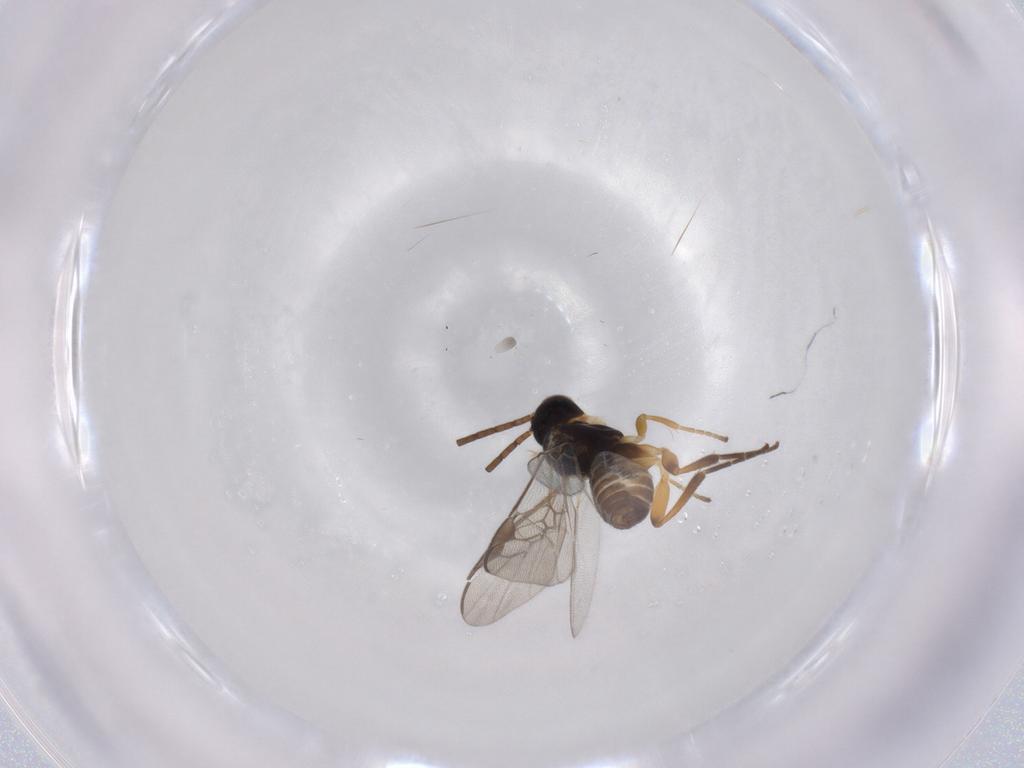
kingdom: Animalia
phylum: Arthropoda
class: Insecta
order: Hymenoptera
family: Braconidae
